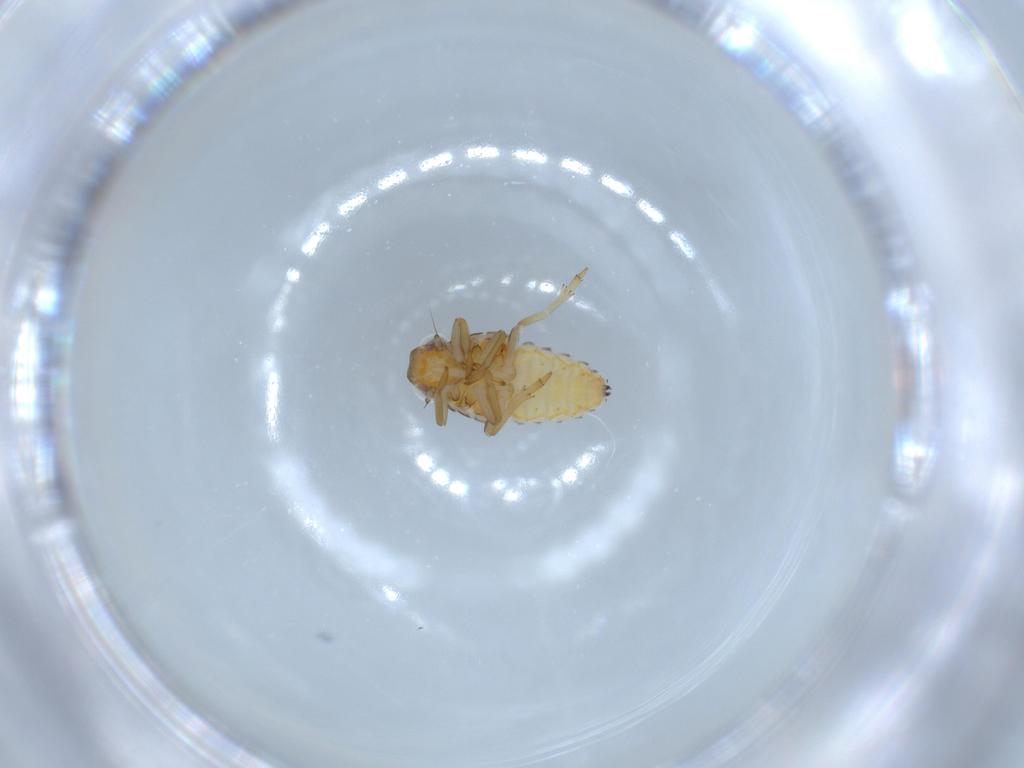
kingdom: Animalia
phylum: Arthropoda
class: Insecta
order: Hemiptera
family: Issidae
